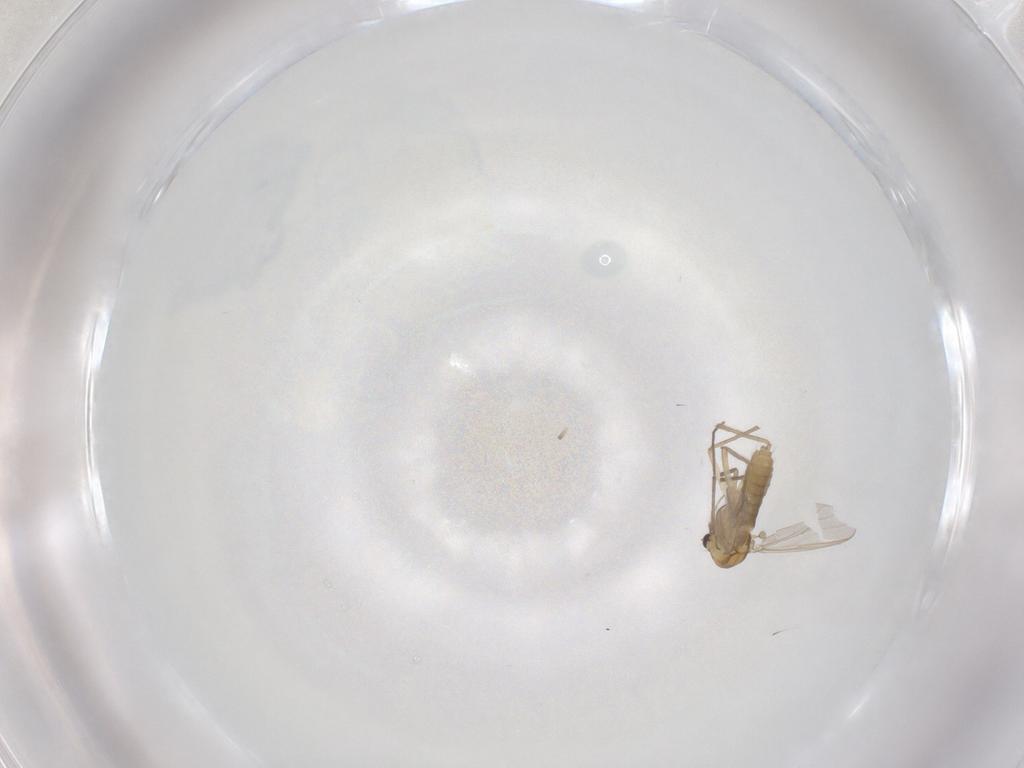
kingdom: Animalia
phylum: Arthropoda
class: Insecta
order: Diptera
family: Chironomidae
